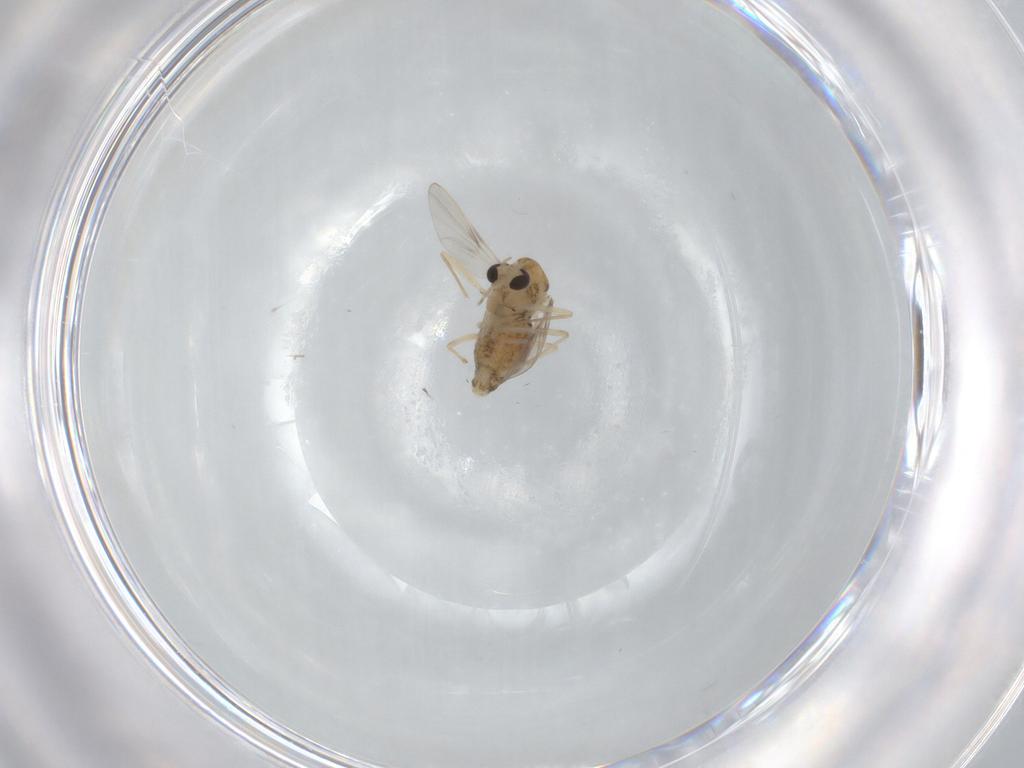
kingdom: Animalia
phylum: Arthropoda
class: Insecta
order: Diptera
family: Chironomidae
